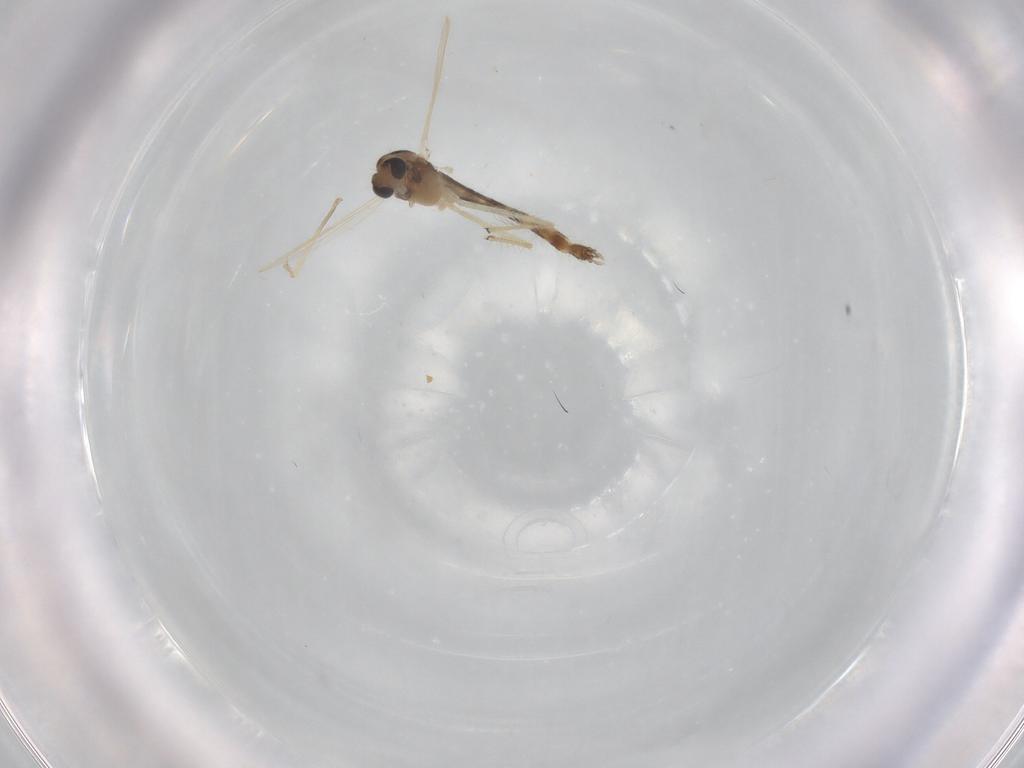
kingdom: Animalia
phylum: Arthropoda
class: Insecta
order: Diptera
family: Chironomidae
